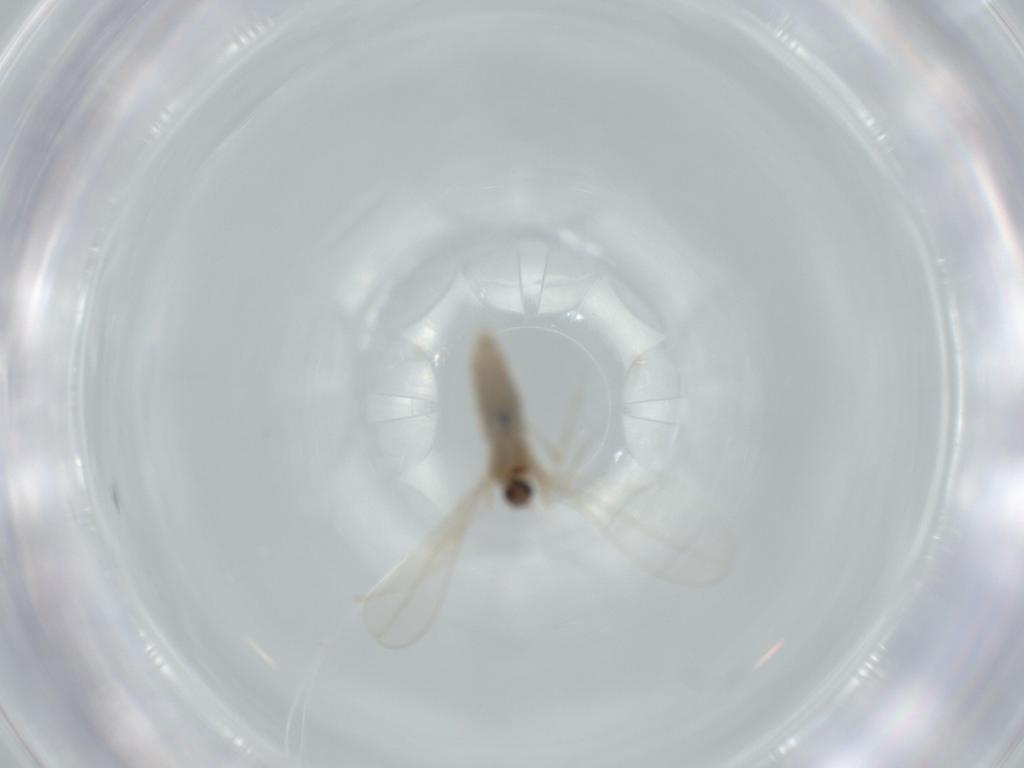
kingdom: Animalia
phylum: Arthropoda
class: Insecta
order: Diptera
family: Sciaridae
